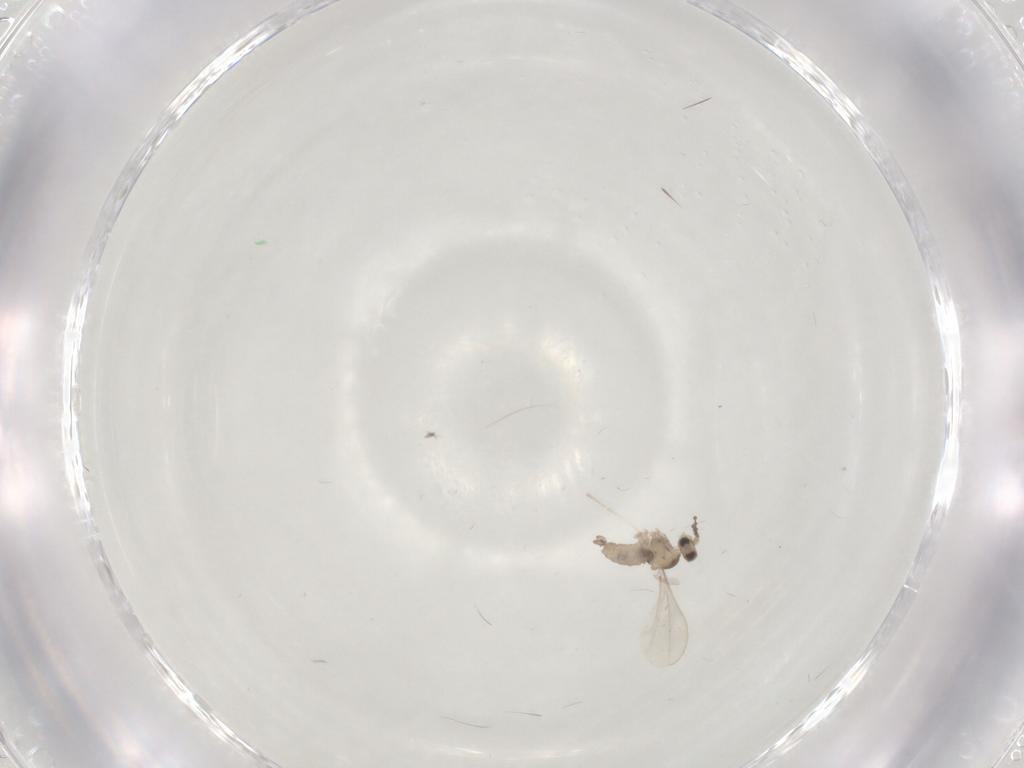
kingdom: Animalia
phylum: Arthropoda
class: Insecta
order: Diptera
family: Cecidomyiidae
